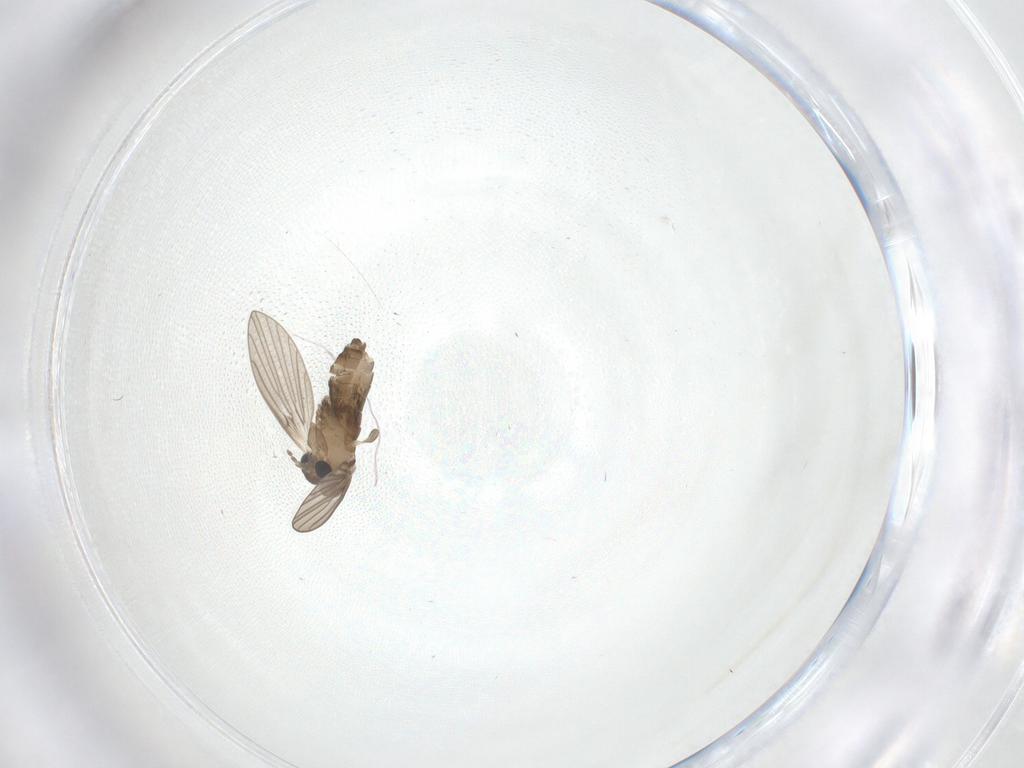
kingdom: Animalia
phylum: Arthropoda
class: Insecta
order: Diptera
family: Psychodidae
